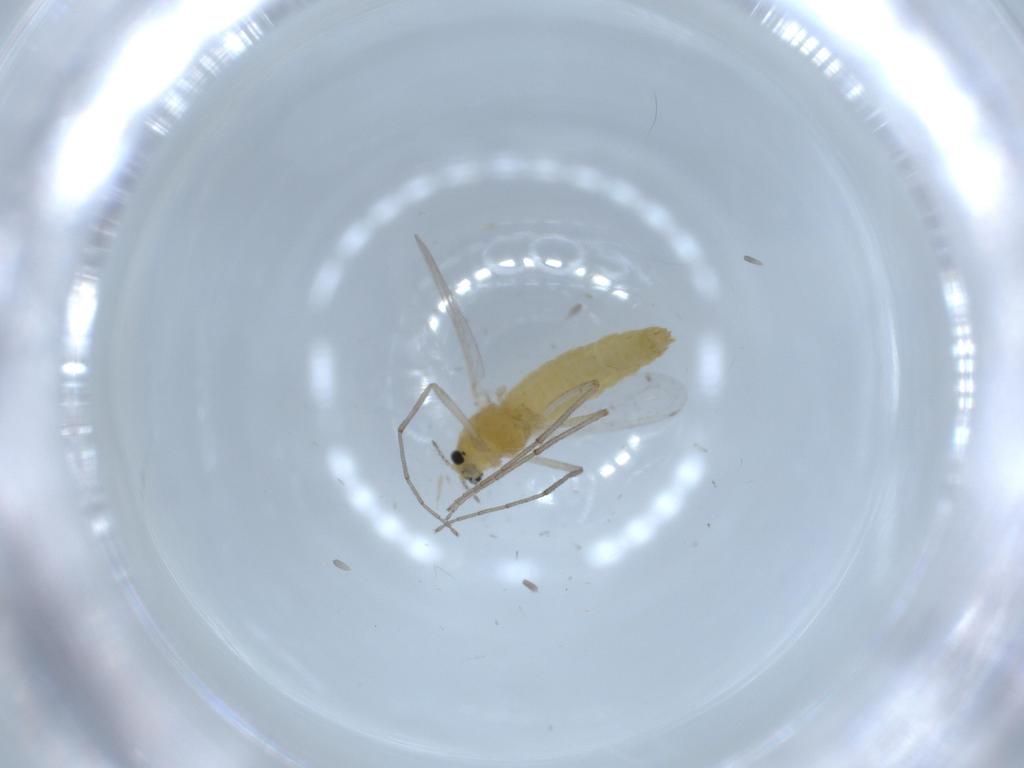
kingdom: Animalia
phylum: Arthropoda
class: Insecta
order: Diptera
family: Chironomidae
